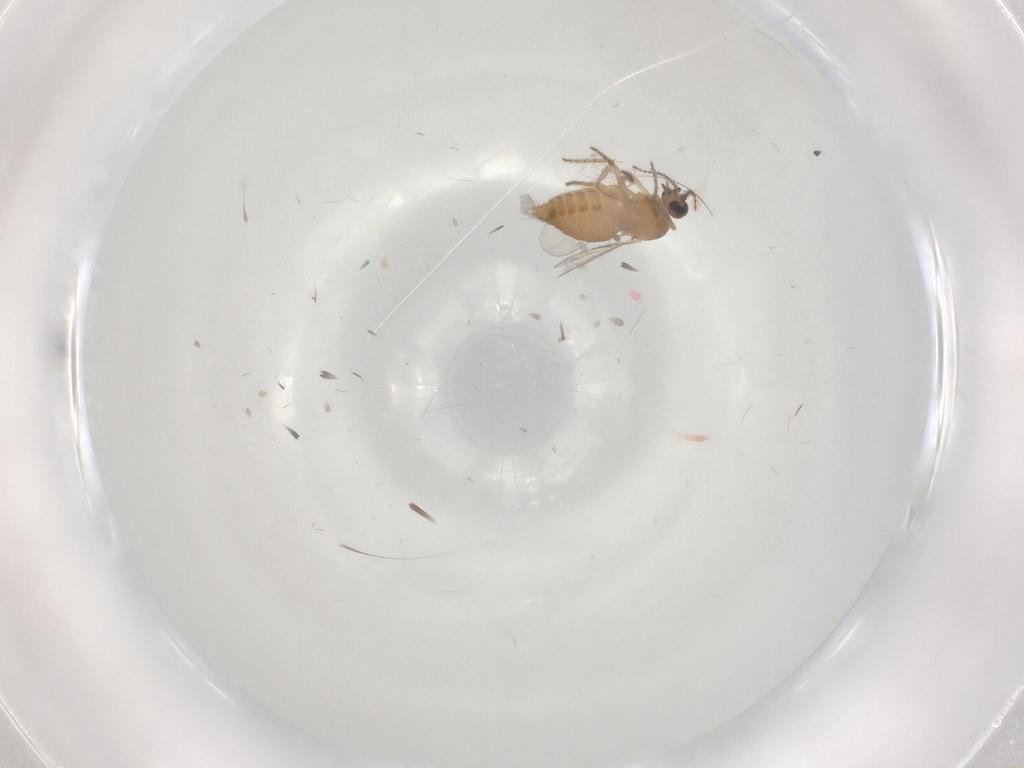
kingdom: Animalia
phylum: Arthropoda
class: Insecta
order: Diptera
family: Ceratopogonidae
